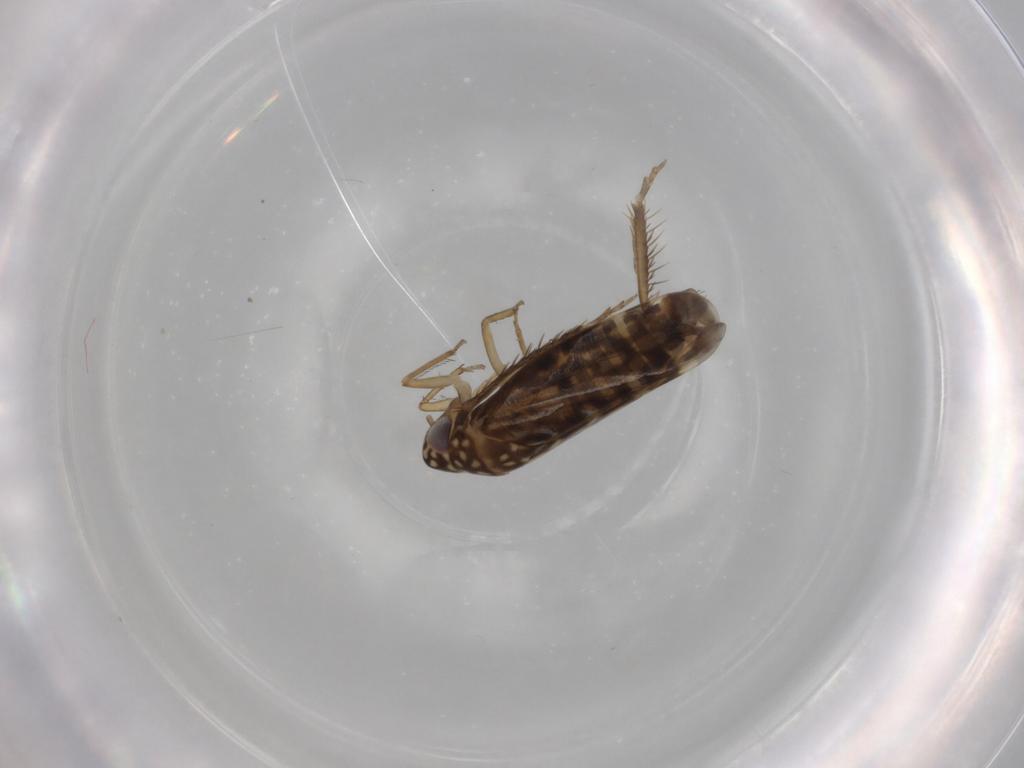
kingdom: Animalia
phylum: Arthropoda
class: Insecta
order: Hemiptera
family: Cicadellidae
